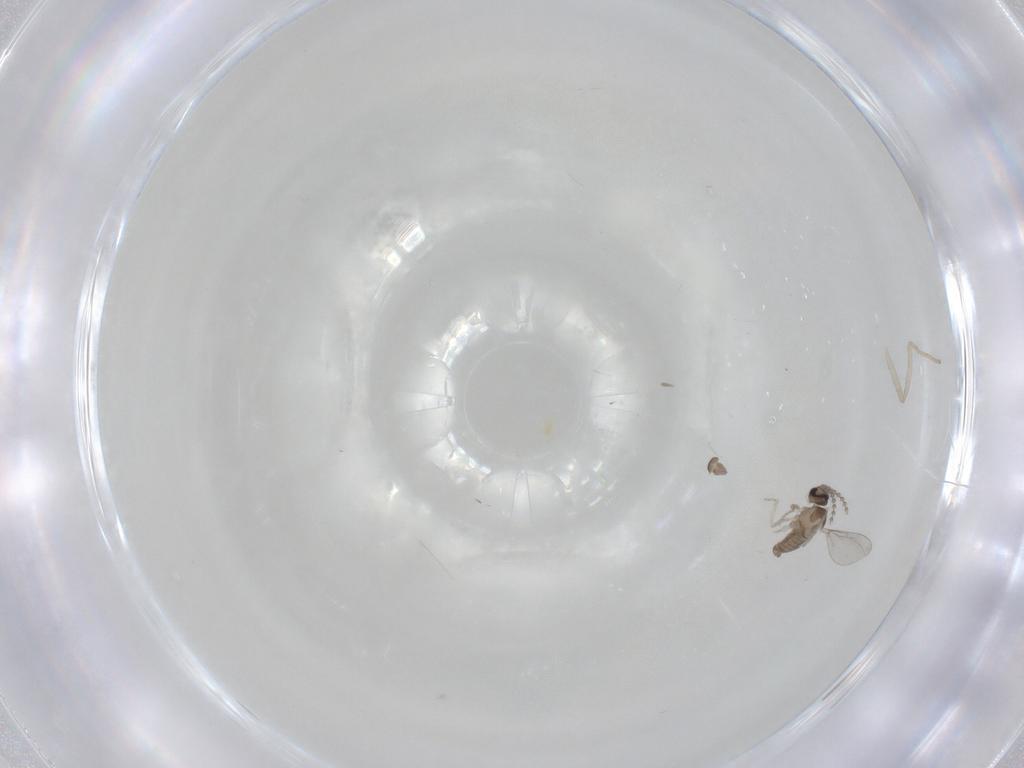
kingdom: Animalia
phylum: Arthropoda
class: Insecta
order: Diptera
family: Cecidomyiidae
